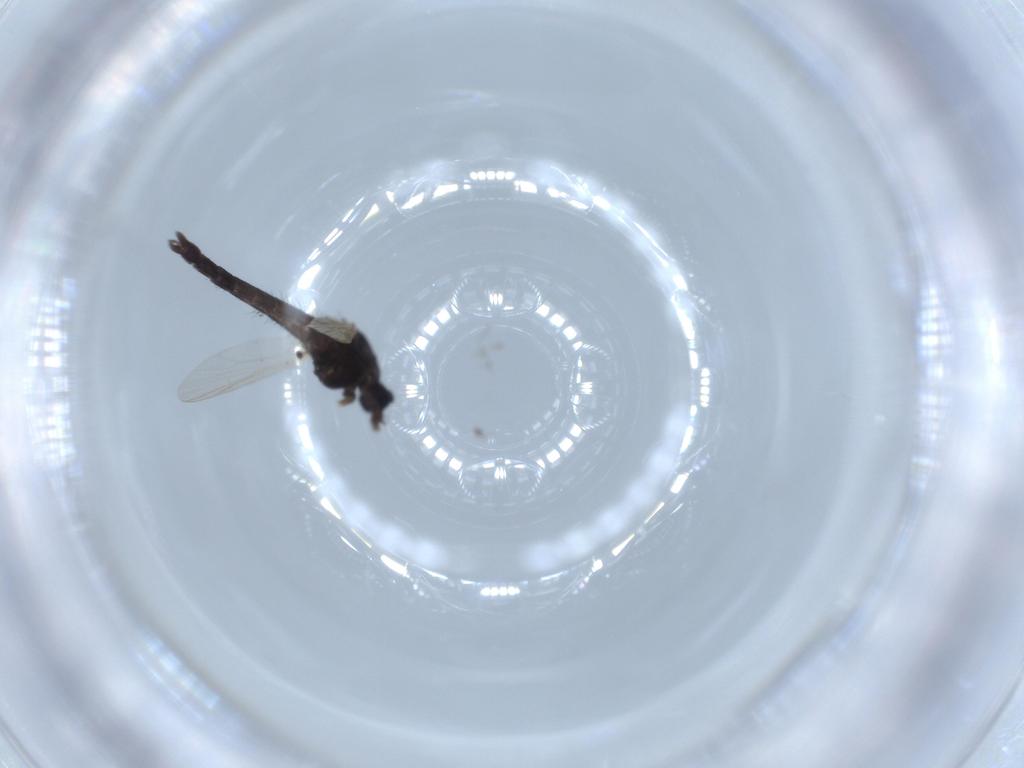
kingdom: Animalia
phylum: Arthropoda
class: Insecta
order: Diptera
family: Chironomidae
